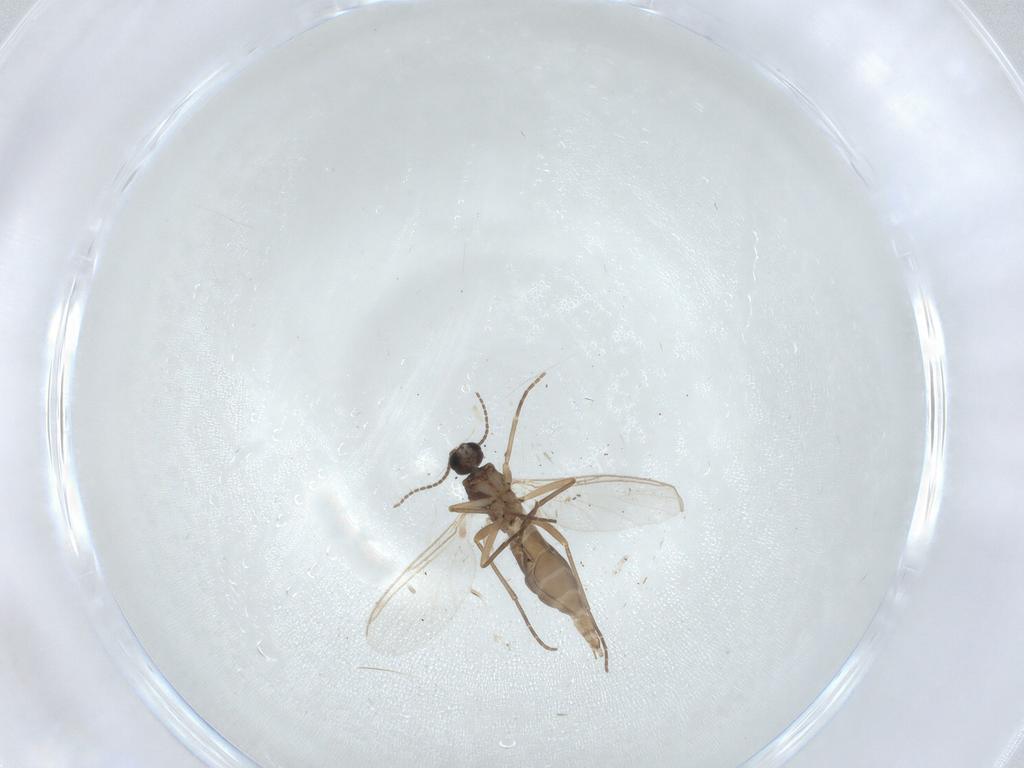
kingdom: Animalia
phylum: Arthropoda
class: Insecta
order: Diptera
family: Sciaridae
